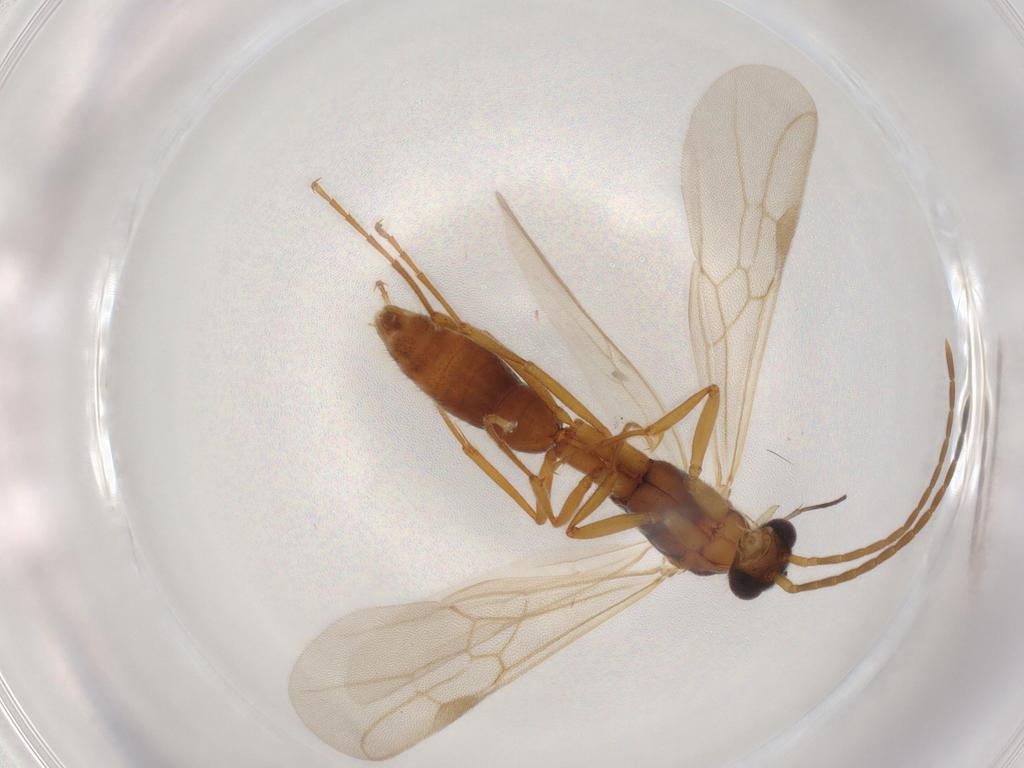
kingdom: Animalia
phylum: Arthropoda
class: Insecta
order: Hymenoptera
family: Formicidae
